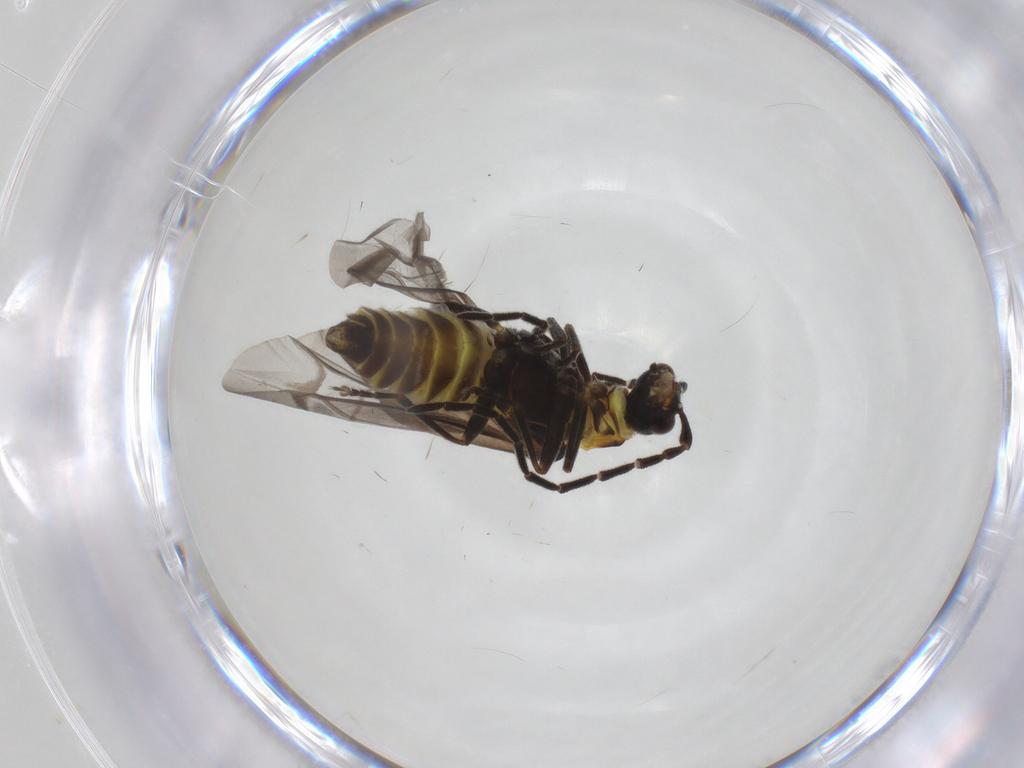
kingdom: Animalia
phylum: Arthropoda
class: Insecta
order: Coleoptera
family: Cantharidae
